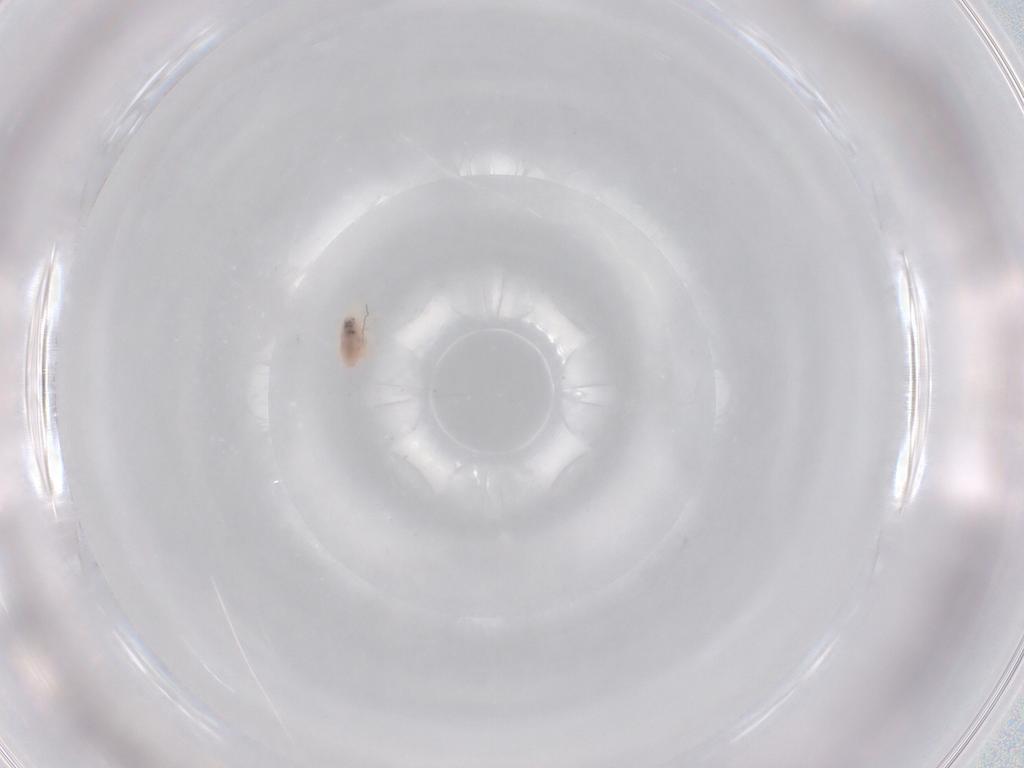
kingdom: Animalia
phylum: Arthropoda
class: Arachnida
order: Trombidiformes
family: Bdellidae
